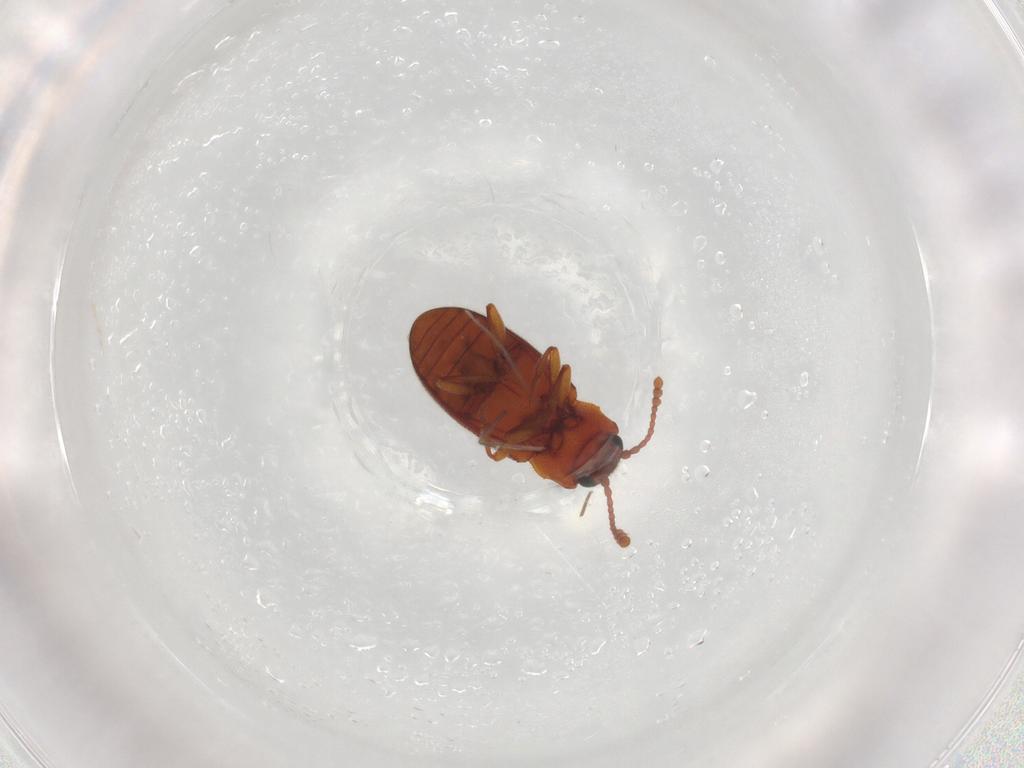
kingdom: Animalia
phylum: Arthropoda
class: Insecta
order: Coleoptera
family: Cryptophagidae
